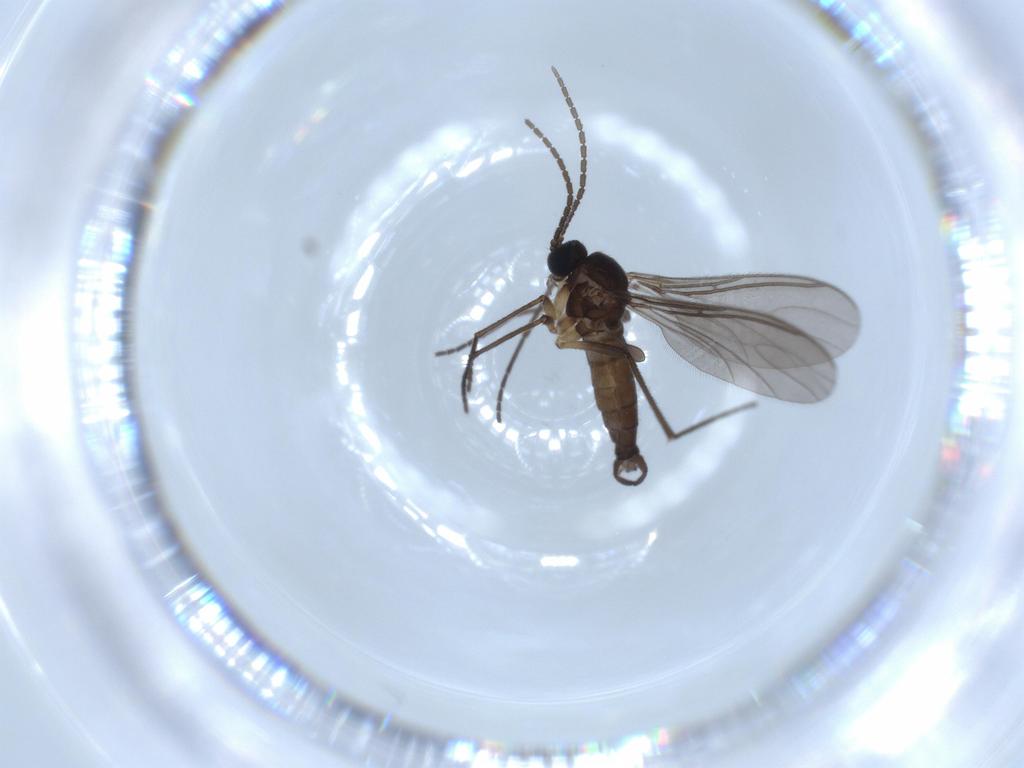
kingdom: Animalia
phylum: Arthropoda
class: Insecta
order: Diptera
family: Sciaridae
